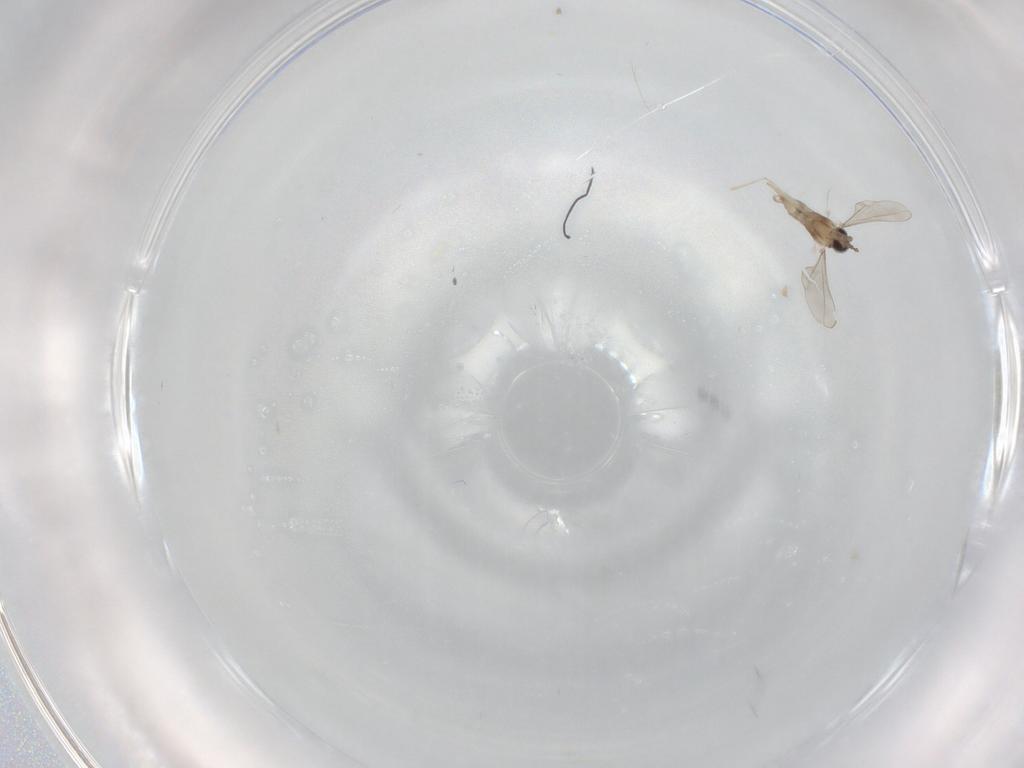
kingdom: Animalia
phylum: Arthropoda
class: Insecta
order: Diptera
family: Cecidomyiidae
